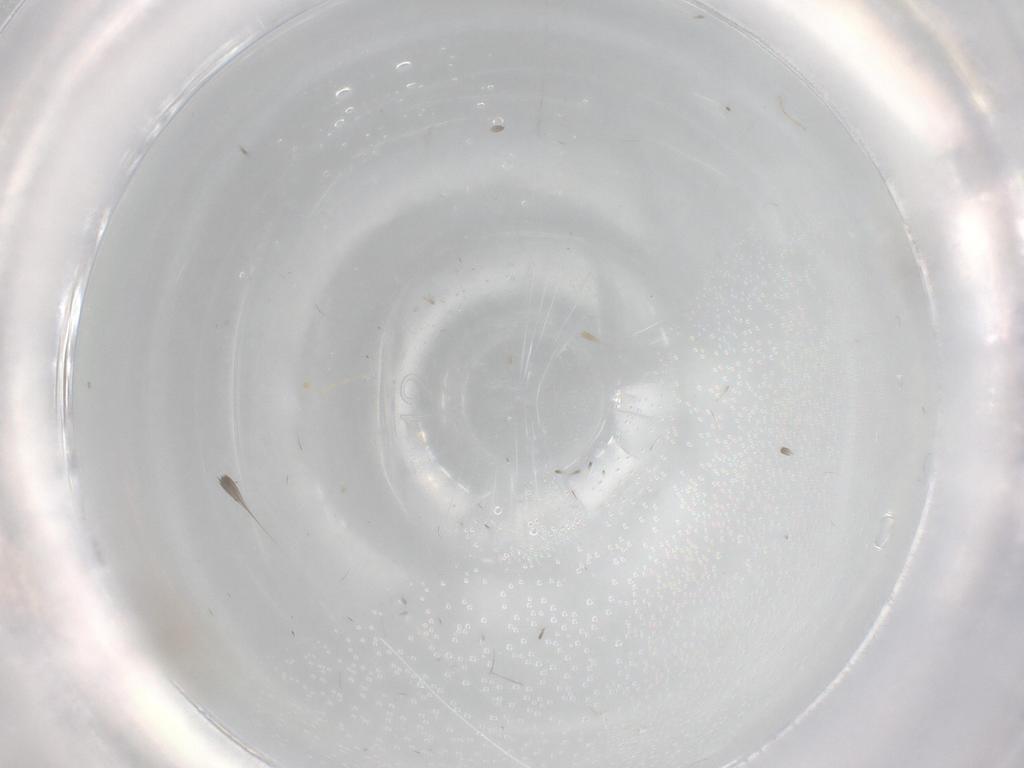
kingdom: Animalia
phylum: Arthropoda
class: Insecta
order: Diptera
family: Cecidomyiidae
